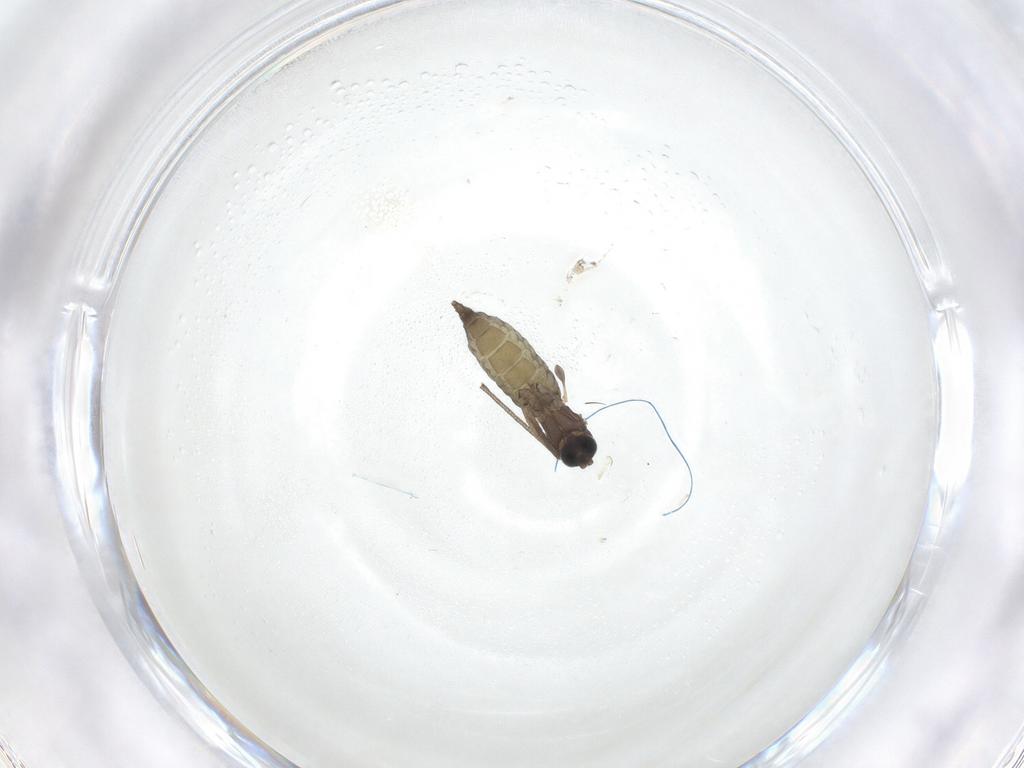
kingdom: Animalia
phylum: Arthropoda
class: Insecta
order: Diptera
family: Sciaridae
